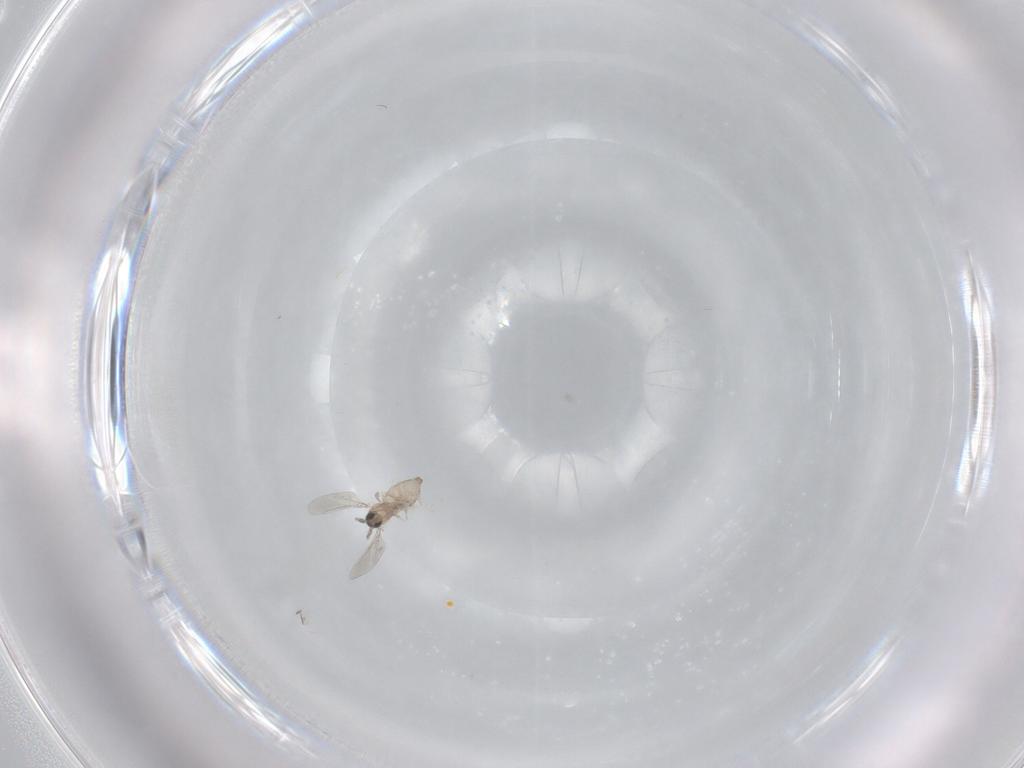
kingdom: Animalia
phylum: Arthropoda
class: Insecta
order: Diptera
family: Cecidomyiidae
